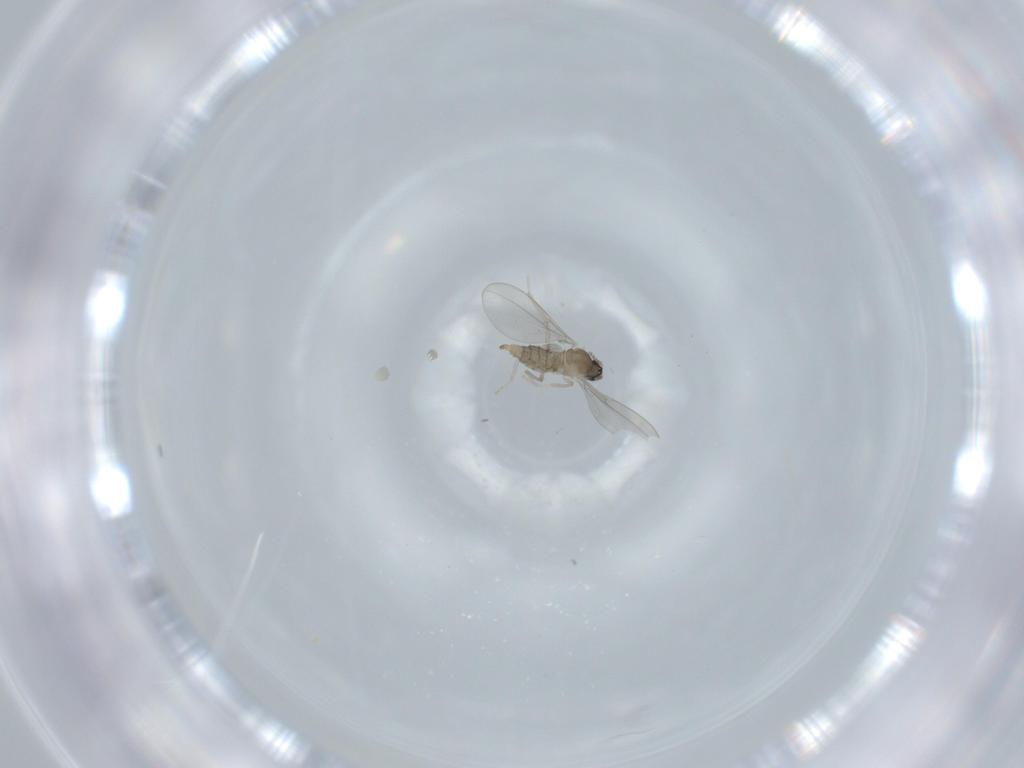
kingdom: Animalia
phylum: Arthropoda
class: Insecta
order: Diptera
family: Cecidomyiidae
